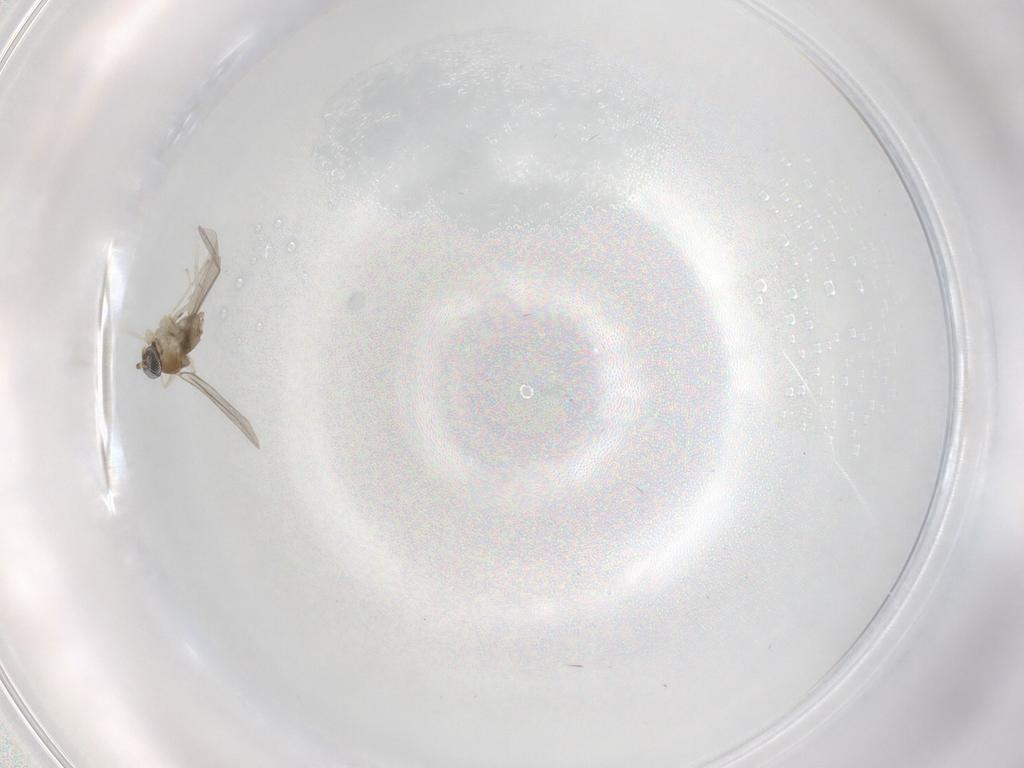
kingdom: Animalia
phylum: Arthropoda
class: Insecta
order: Diptera
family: Cecidomyiidae
